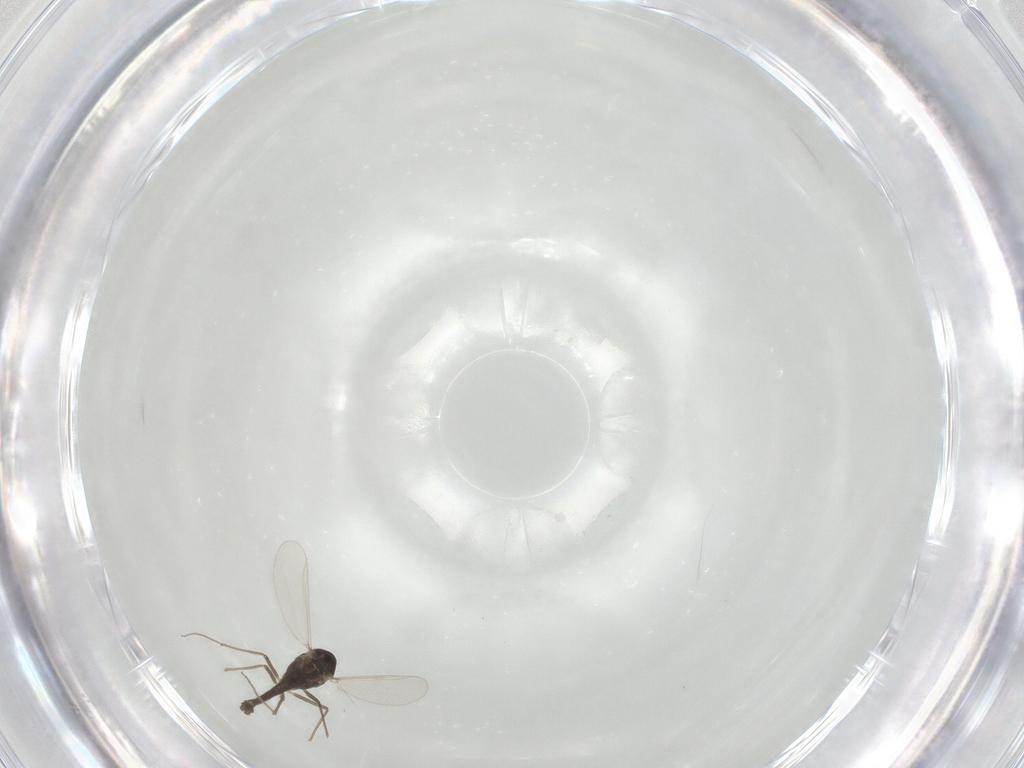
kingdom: Animalia
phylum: Arthropoda
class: Insecta
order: Diptera
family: Chironomidae
